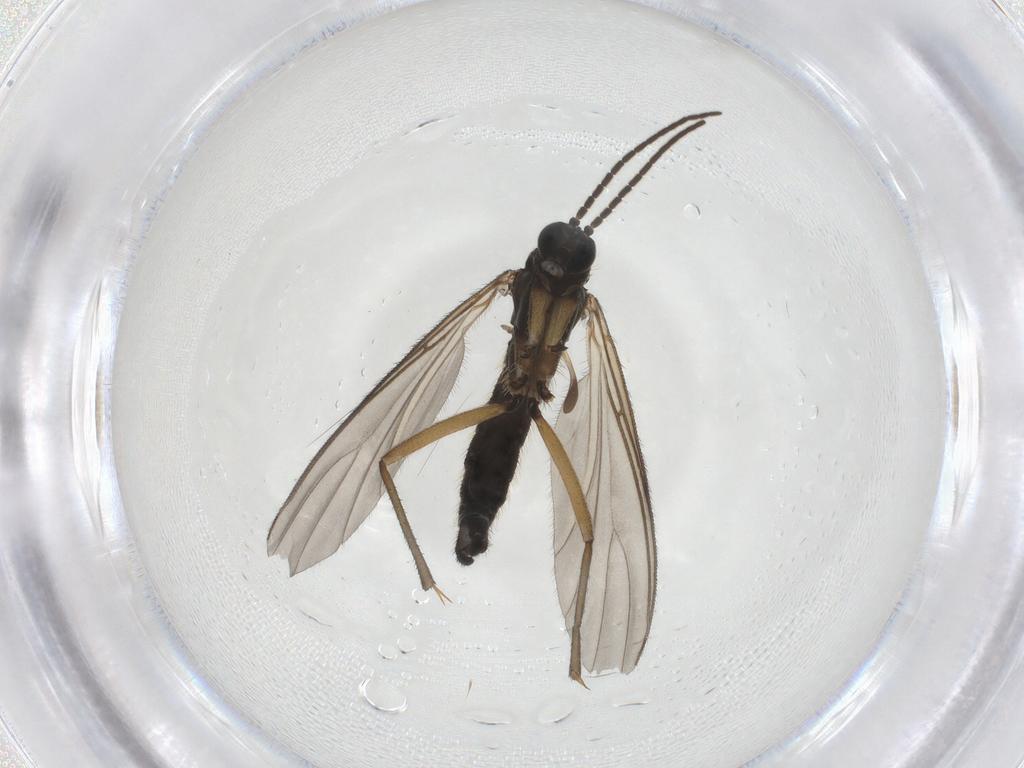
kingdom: Animalia
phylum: Arthropoda
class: Insecta
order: Diptera
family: Sciaridae
